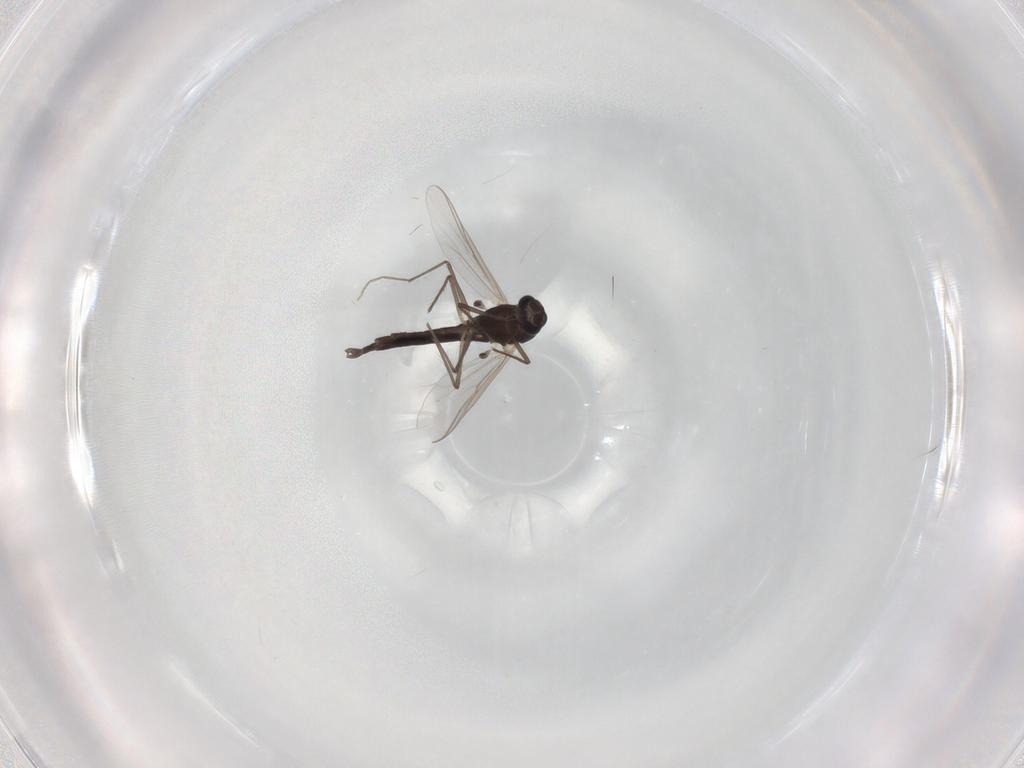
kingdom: Animalia
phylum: Arthropoda
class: Insecta
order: Diptera
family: Chironomidae
